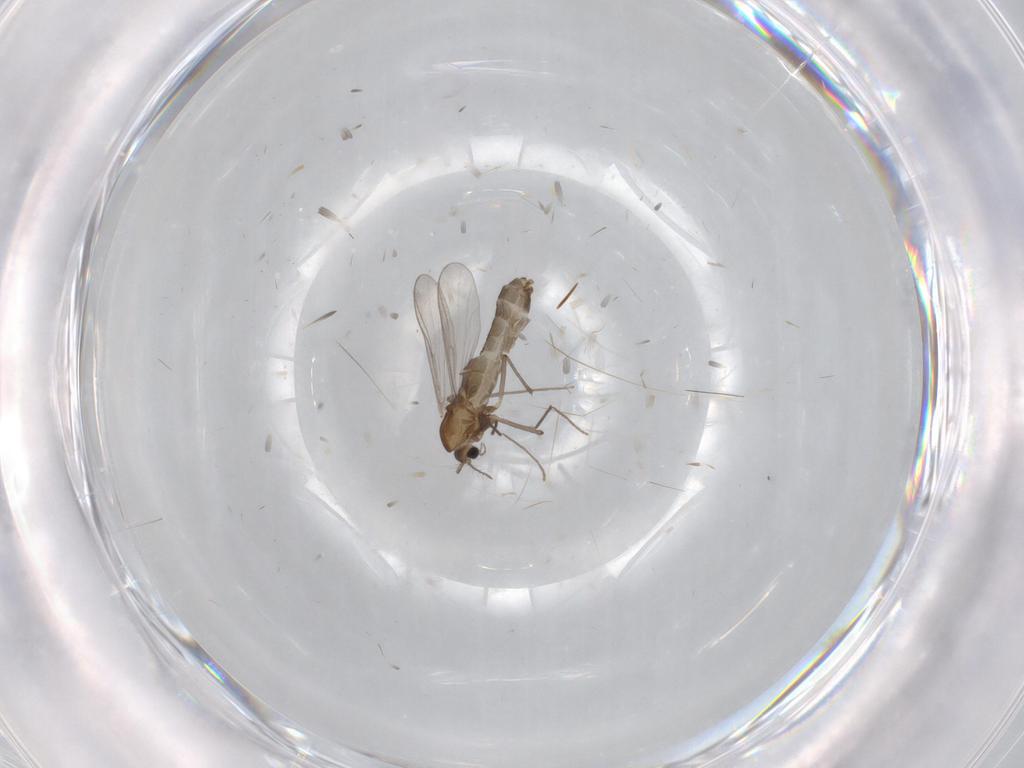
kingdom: Animalia
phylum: Arthropoda
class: Insecta
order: Diptera
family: Chironomidae
